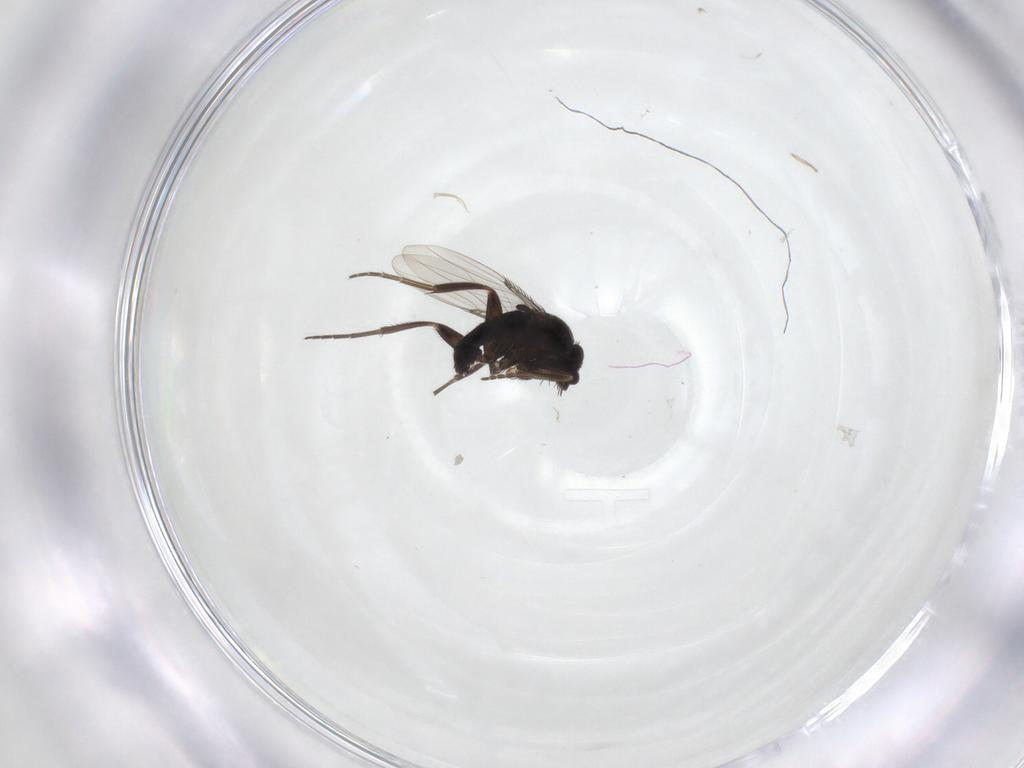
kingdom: Animalia
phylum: Arthropoda
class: Insecta
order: Diptera
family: Phoridae
